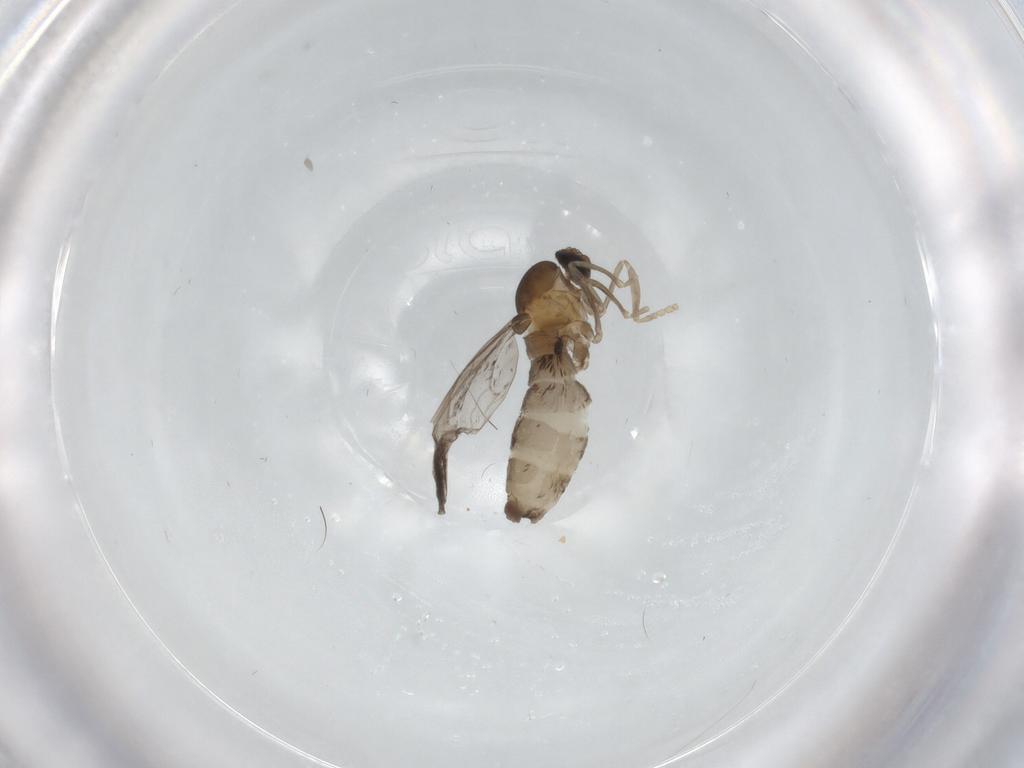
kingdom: Animalia
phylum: Arthropoda
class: Insecta
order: Diptera
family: Cecidomyiidae
